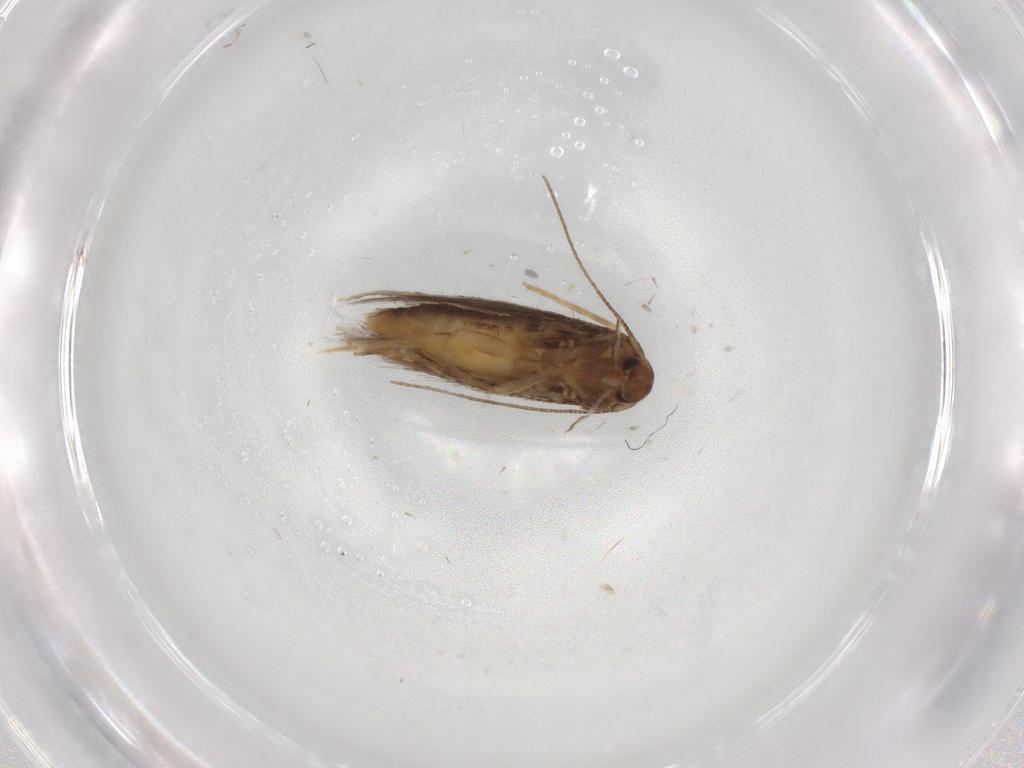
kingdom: Animalia
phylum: Arthropoda
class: Insecta
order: Lepidoptera
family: Elachistidae
